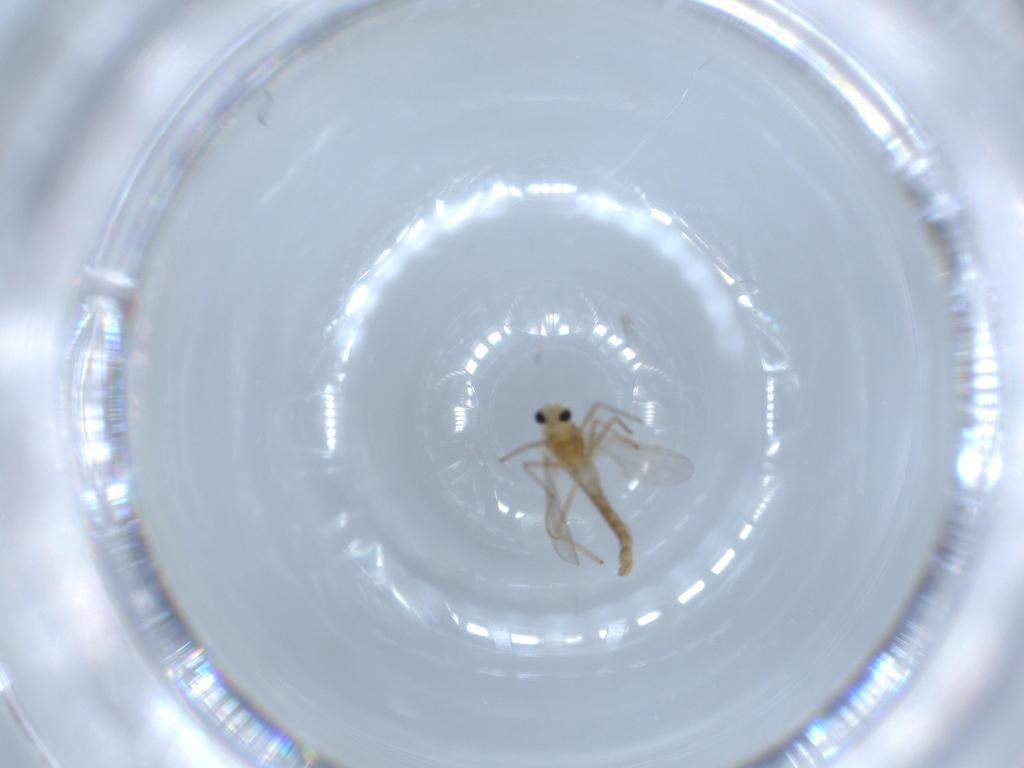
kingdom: Animalia
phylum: Arthropoda
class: Insecta
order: Diptera
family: Chironomidae
